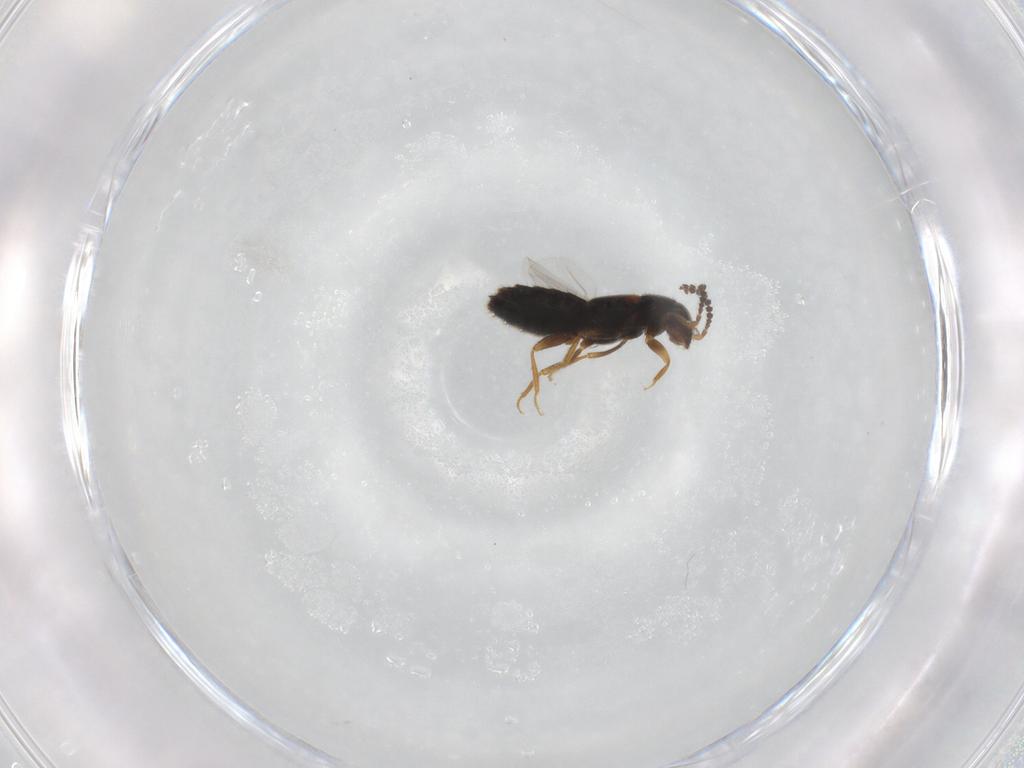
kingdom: Animalia
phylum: Arthropoda
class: Insecta
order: Coleoptera
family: Staphylinidae
